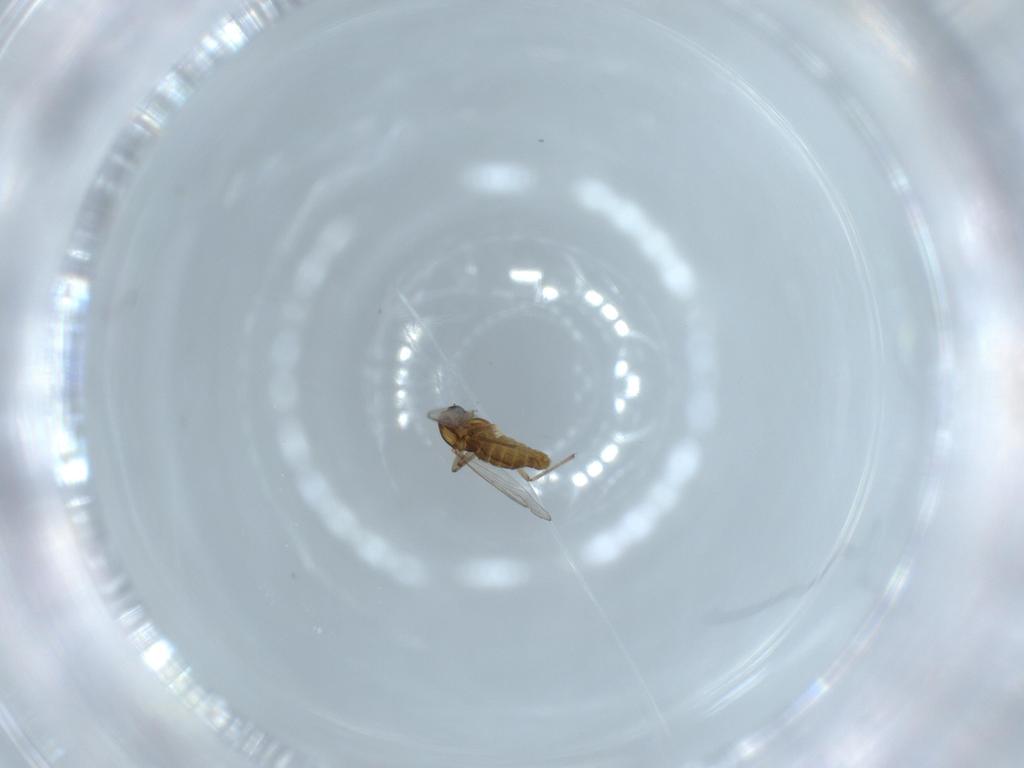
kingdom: Animalia
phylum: Arthropoda
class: Insecta
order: Diptera
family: Chironomidae
